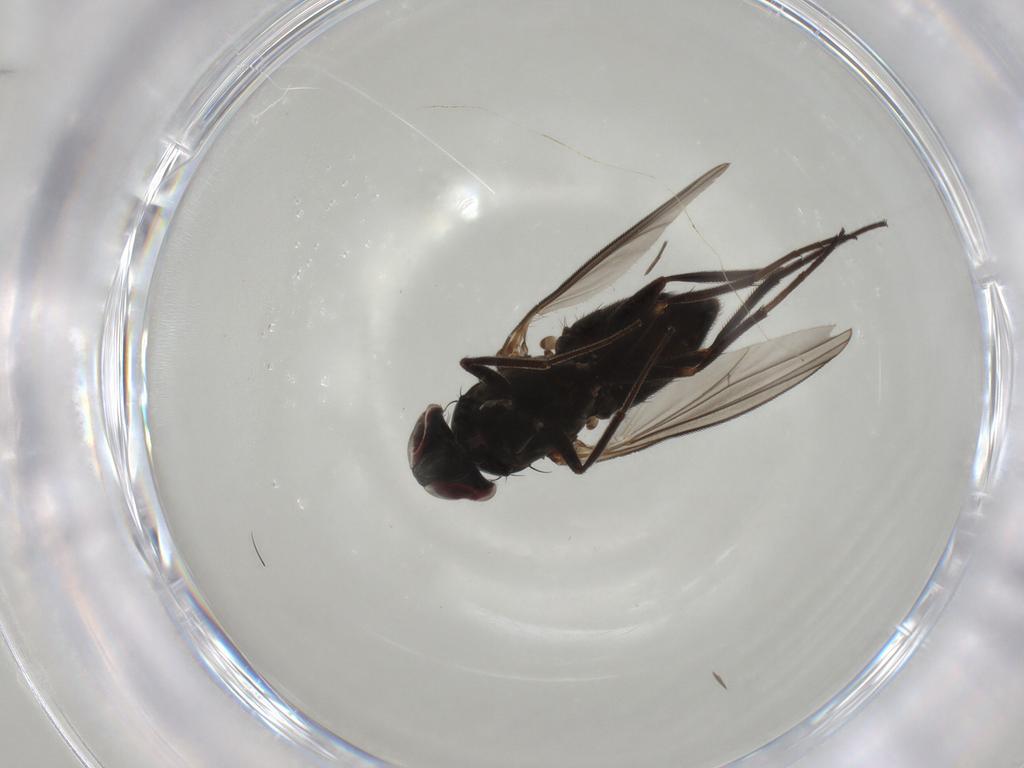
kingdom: Animalia
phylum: Arthropoda
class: Insecta
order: Diptera
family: Dolichopodidae
